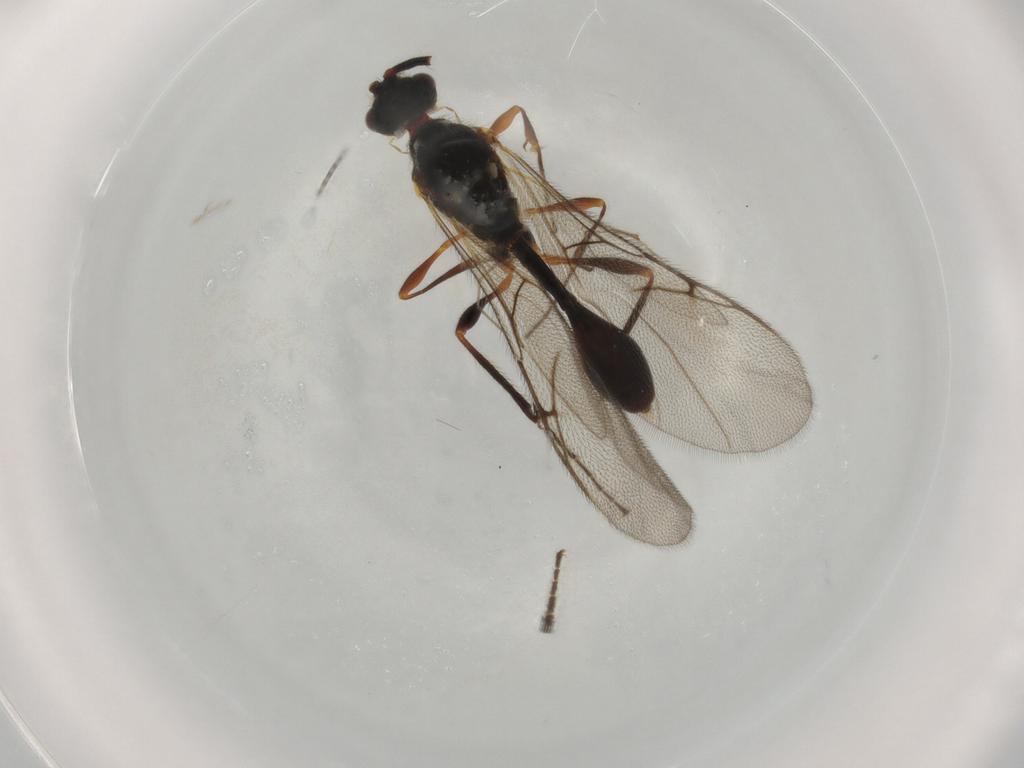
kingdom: Animalia
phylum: Arthropoda
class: Insecta
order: Hymenoptera
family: Diapriidae
